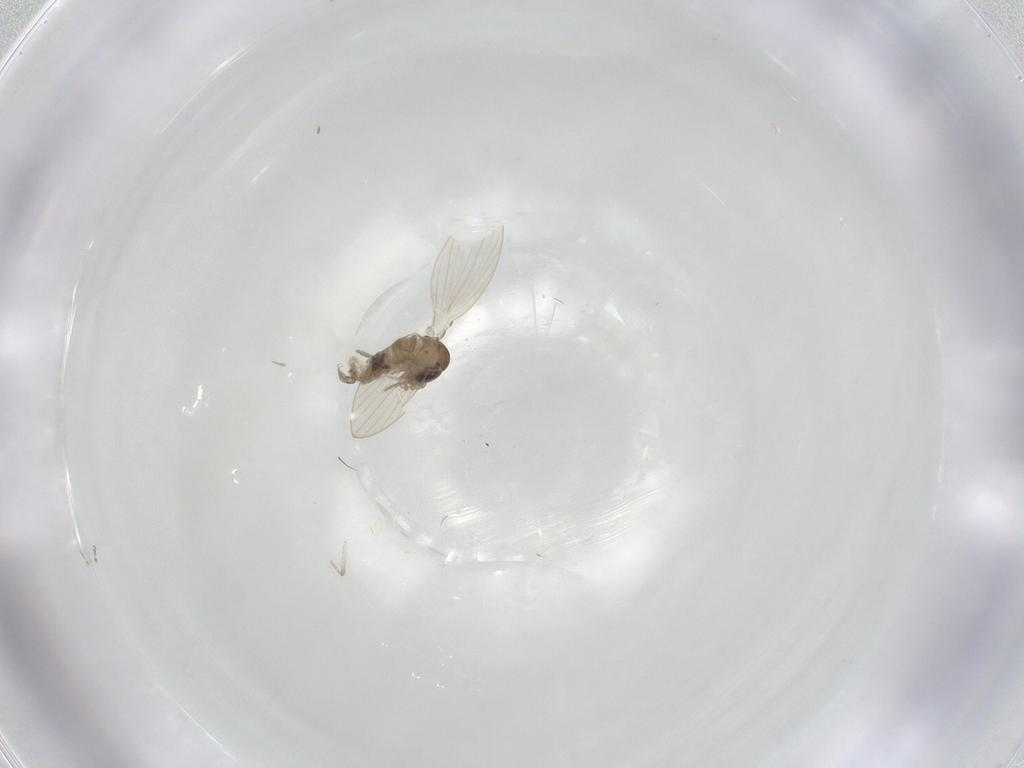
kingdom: Animalia
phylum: Arthropoda
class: Insecta
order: Diptera
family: Psychodidae
